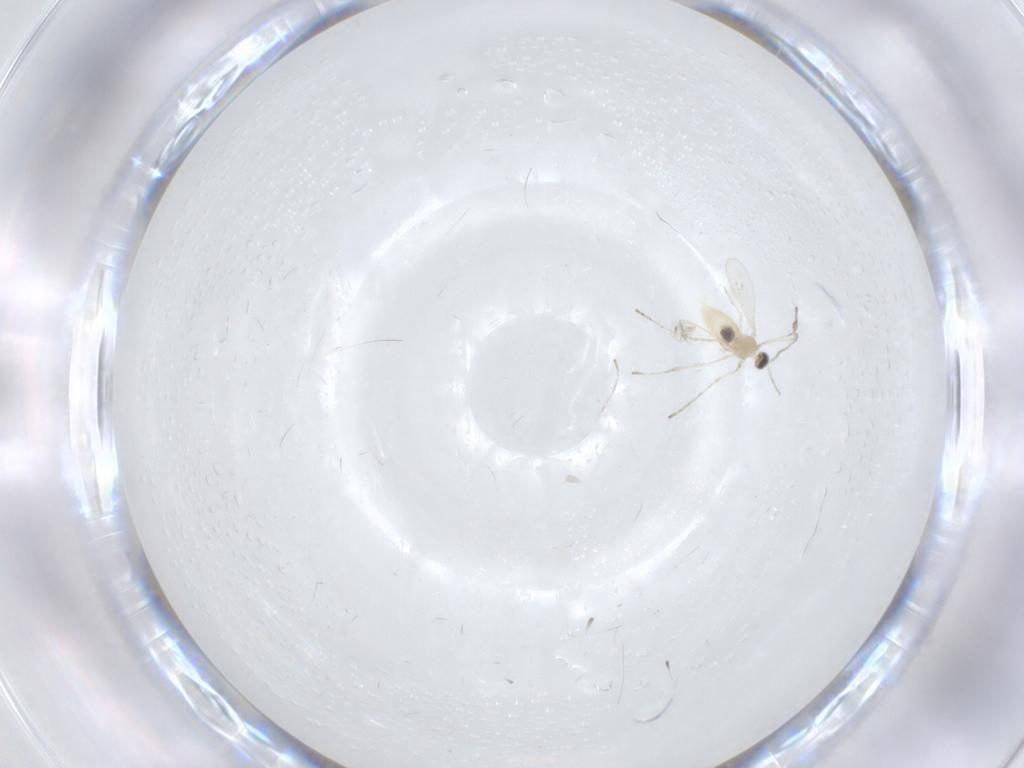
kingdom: Animalia
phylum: Arthropoda
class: Insecta
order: Diptera
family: Cecidomyiidae
